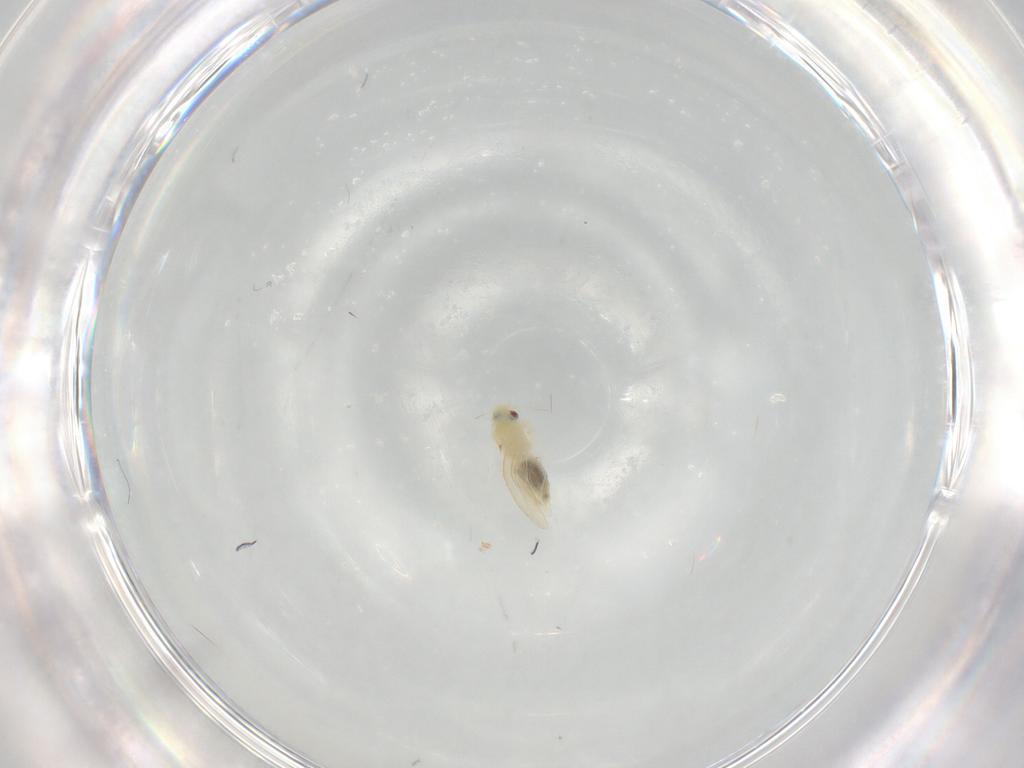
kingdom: Animalia
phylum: Arthropoda
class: Insecta
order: Hemiptera
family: Aleyrodidae
